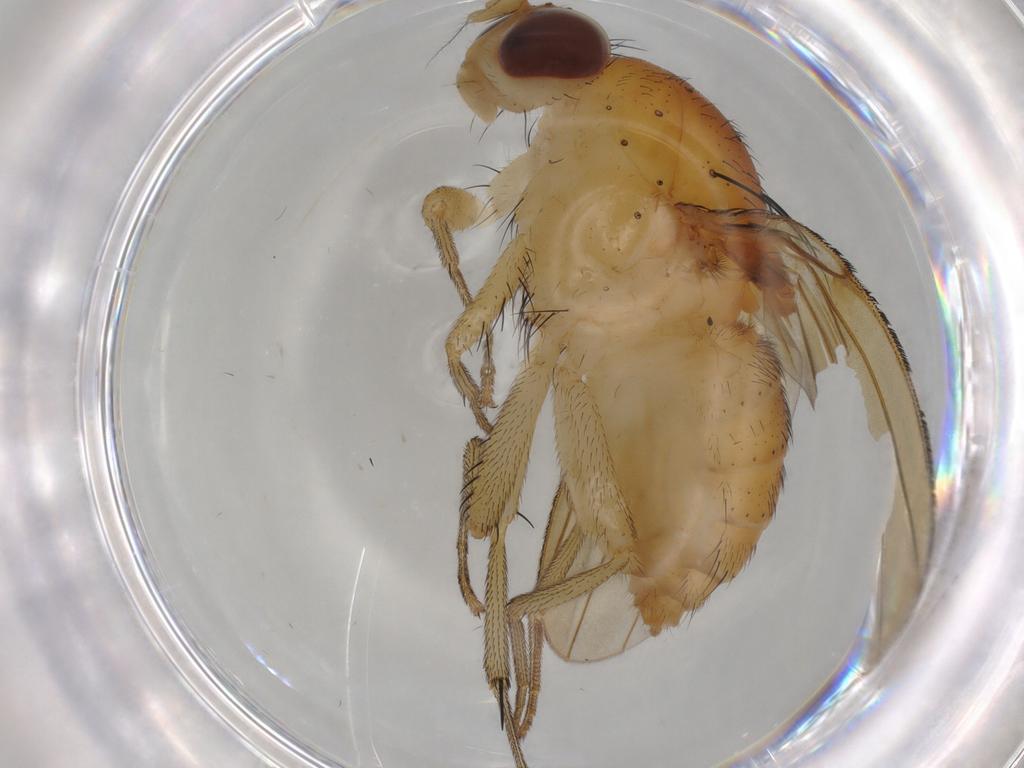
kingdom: Animalia
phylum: Arthropoda
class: Insecta
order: Diptera
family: Lauxaniidae
